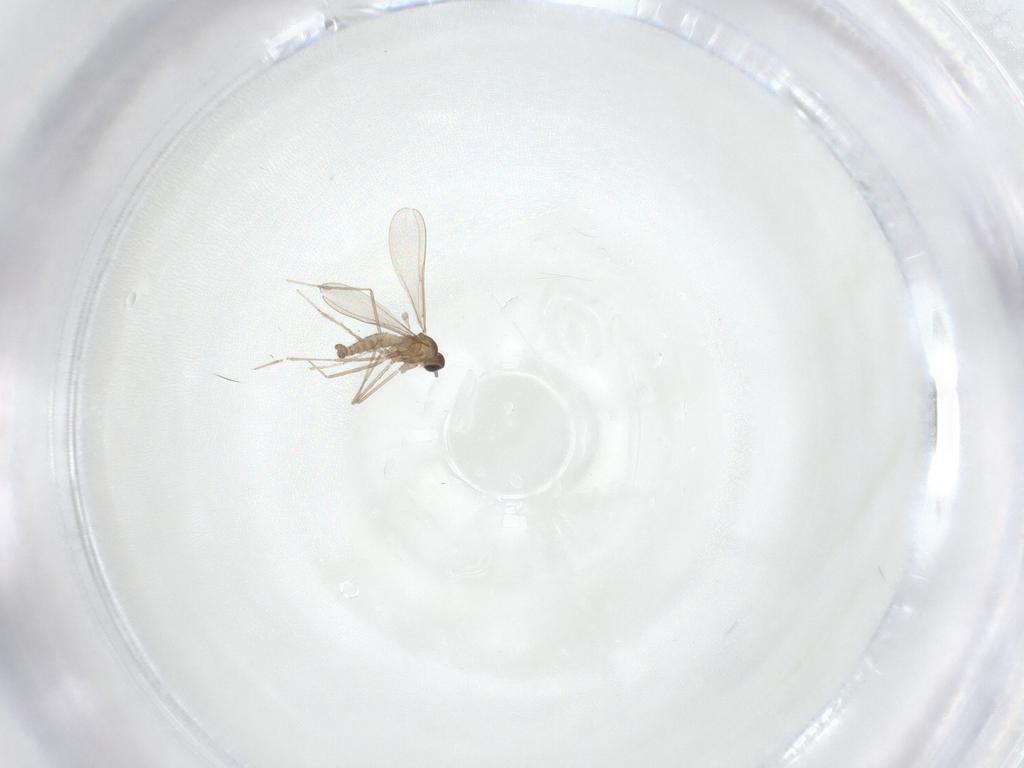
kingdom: Animalia
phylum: Arthropoda
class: Insecta
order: Diptera
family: Cecidomyiidae
